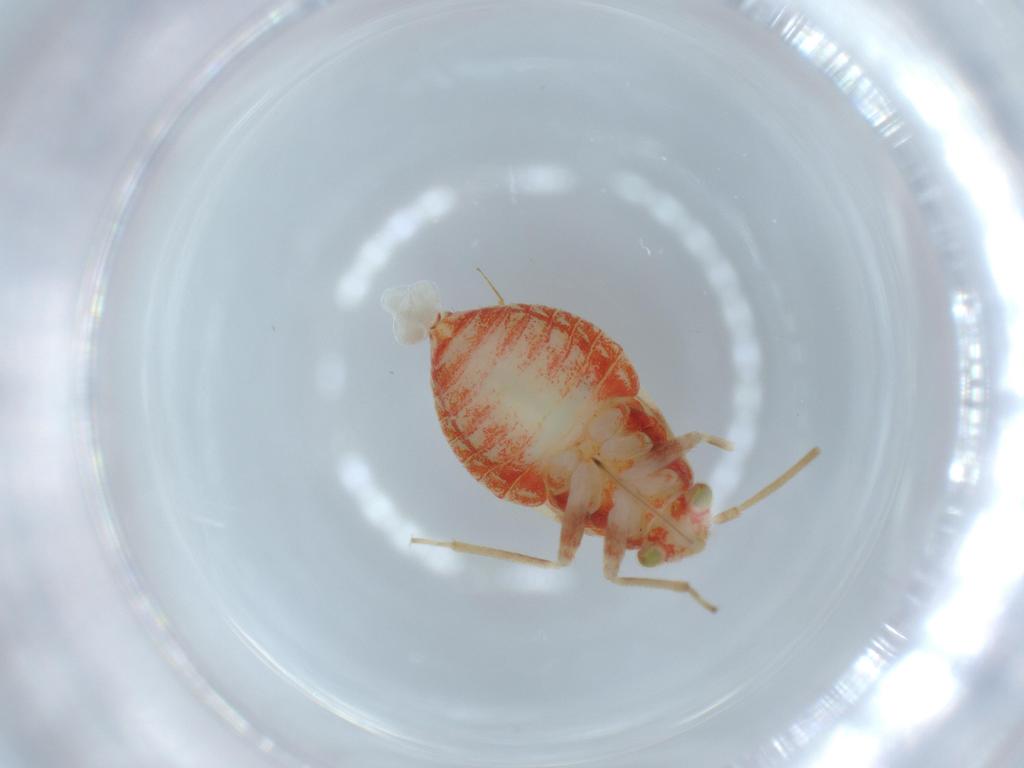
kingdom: Animalia
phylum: Arthropoda
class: Insecta
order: Hemiptera
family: Miridae
